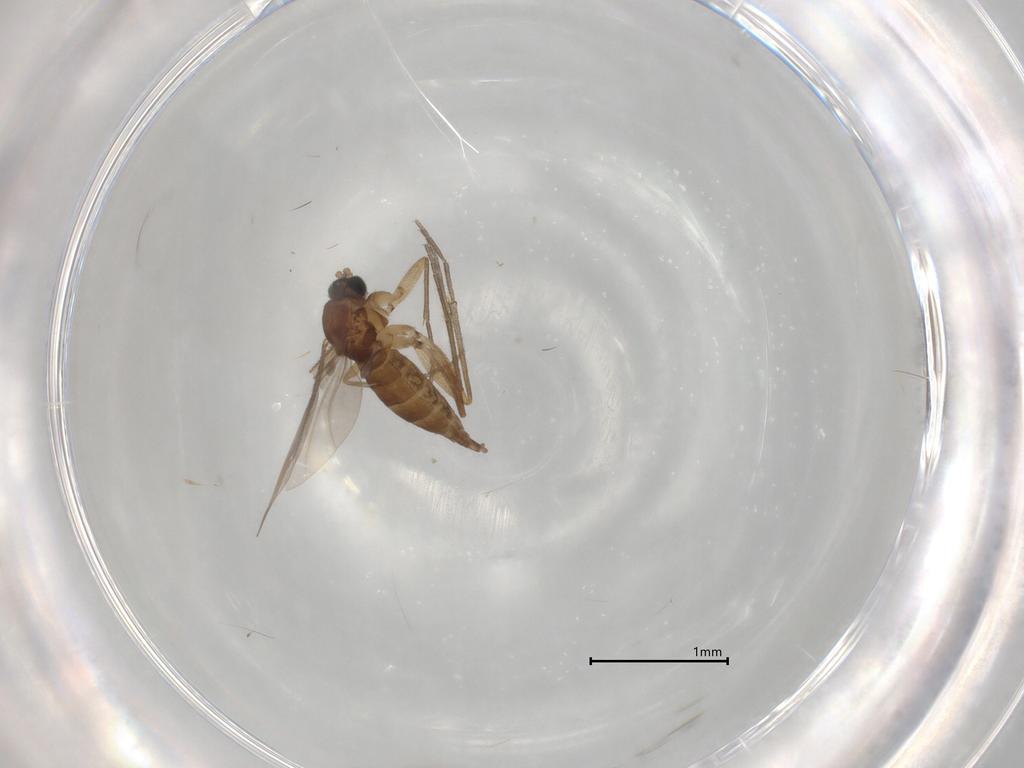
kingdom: Animalia
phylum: Arthropoda
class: Insecta
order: Diptera
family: Sciaridae
